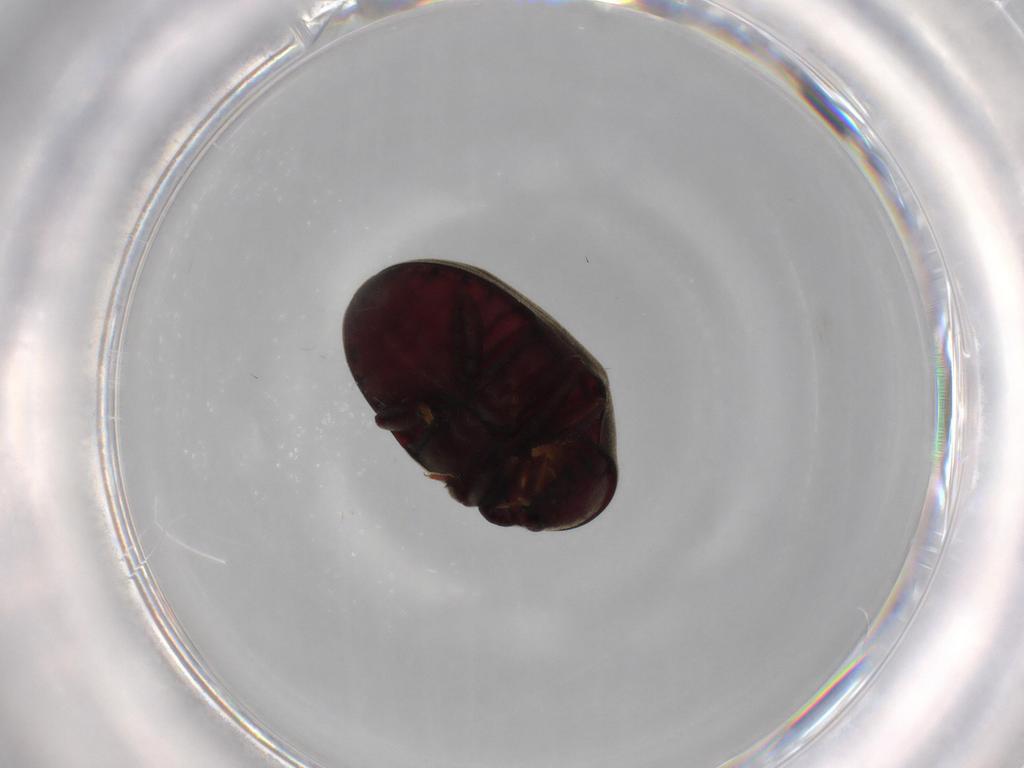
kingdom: Animalia
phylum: Arthropoda
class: Insecta
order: Coleoptera
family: Ptinidae
